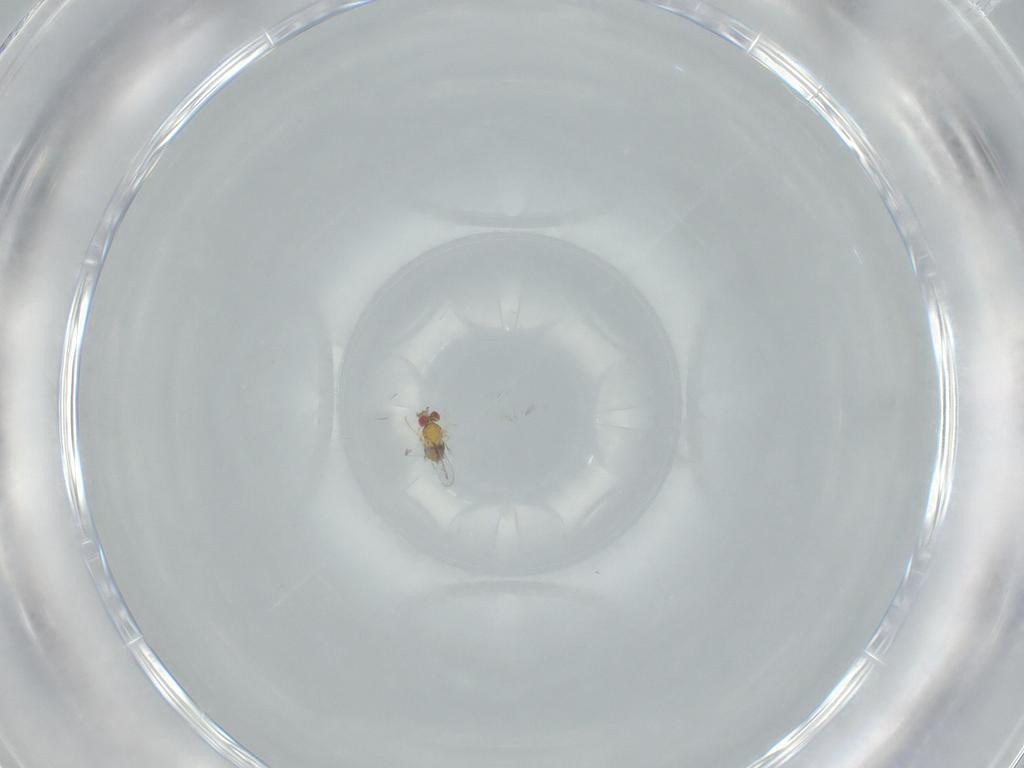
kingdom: Animalia
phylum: Arthropoda
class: Insecta
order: Hymenoptera
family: Trichogrammatidae
